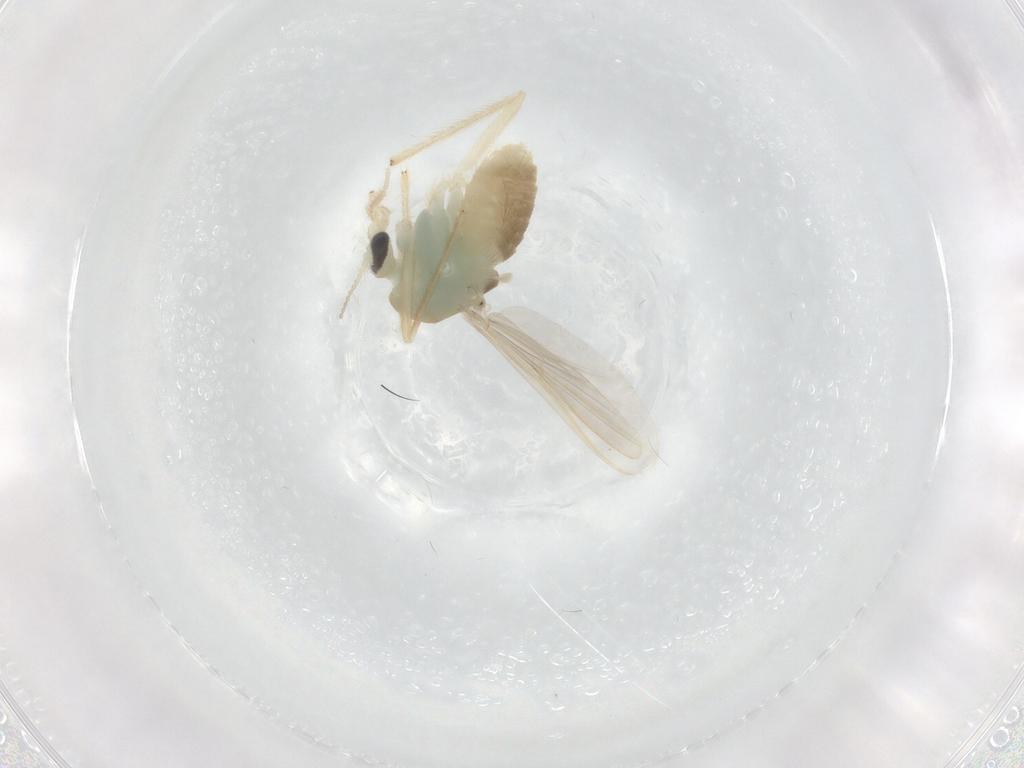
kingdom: Animalia
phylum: Arthropoda
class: Insecta
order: Diptera
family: Chironomidae
